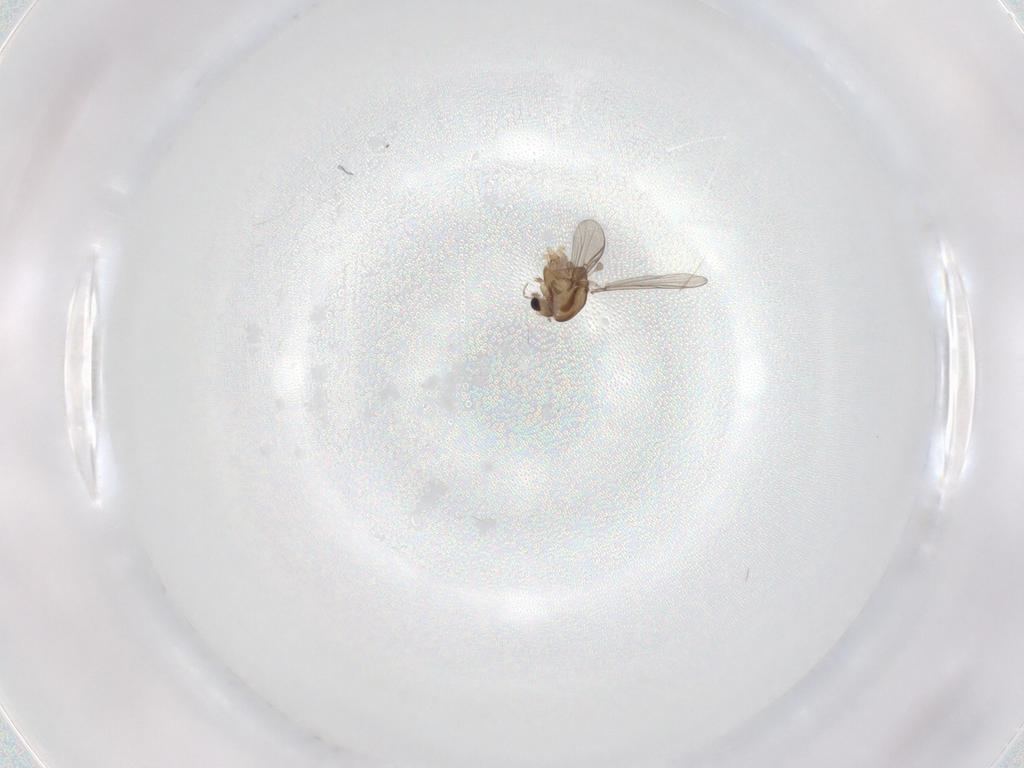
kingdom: Animalia
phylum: Arthropoda
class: Insecta
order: Diptera
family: Chironomidae
